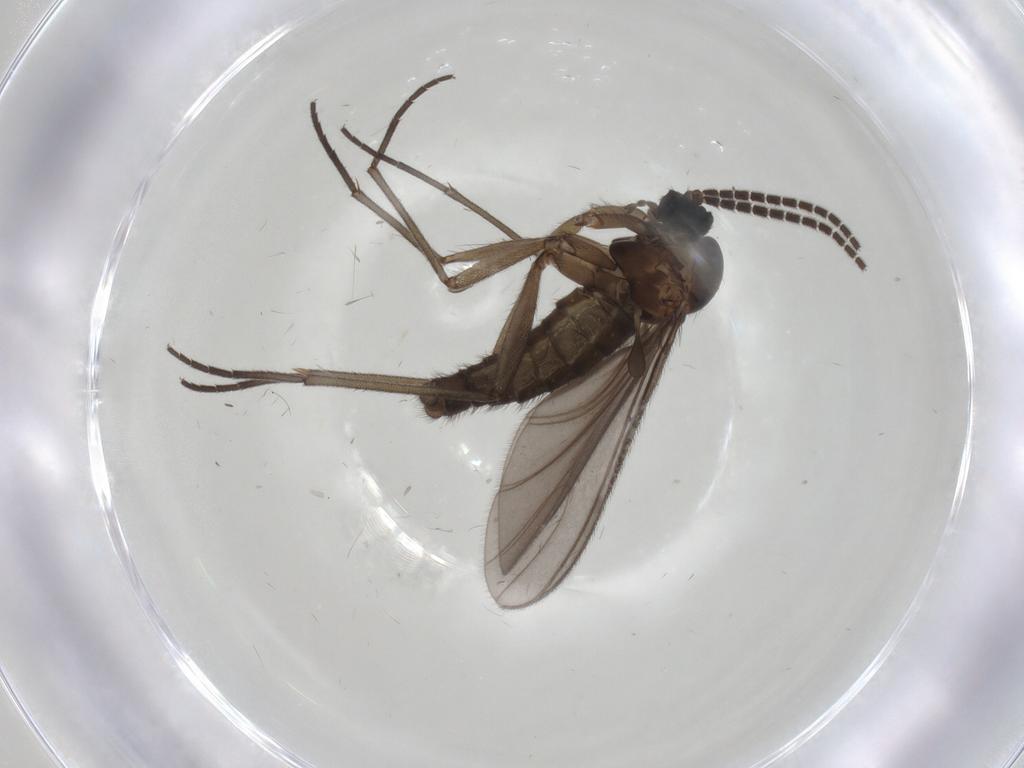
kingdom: Animalia
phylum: Arthropoda
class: Insecta
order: Diptera
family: Sciaridae
